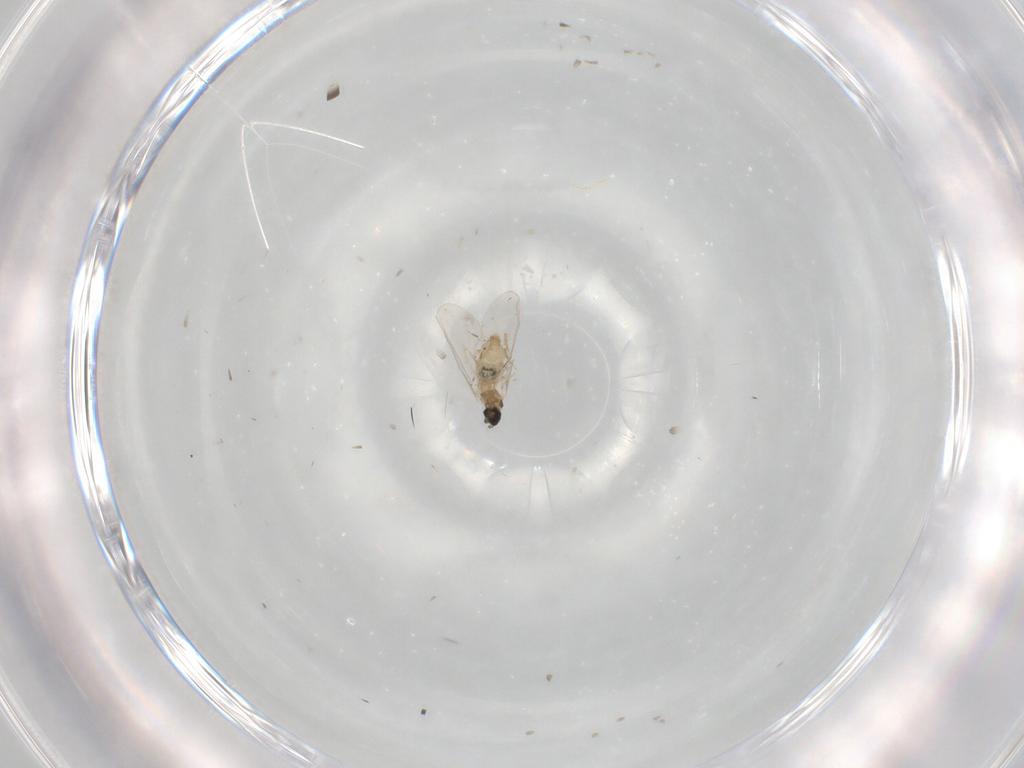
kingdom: Animalia
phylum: Arthropoda
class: Insecta
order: Diptera
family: Cecidomyiidae
